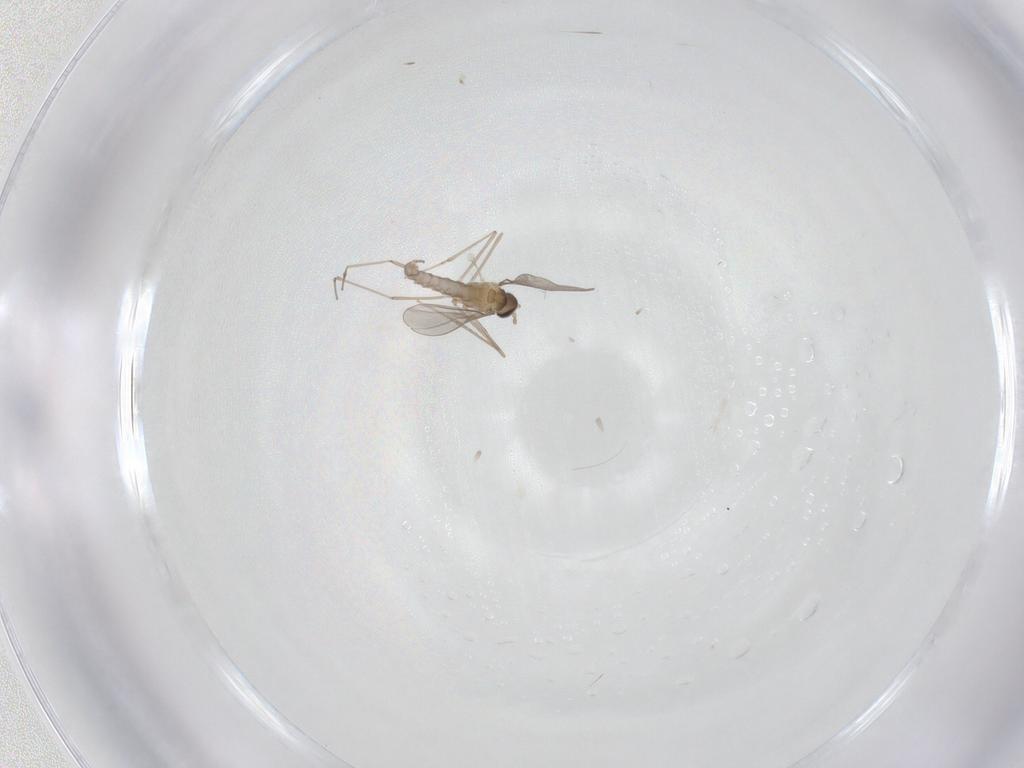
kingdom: Animalia
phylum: Arthropoda
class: Insecta
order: Diptera
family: Cecidomyiidae
